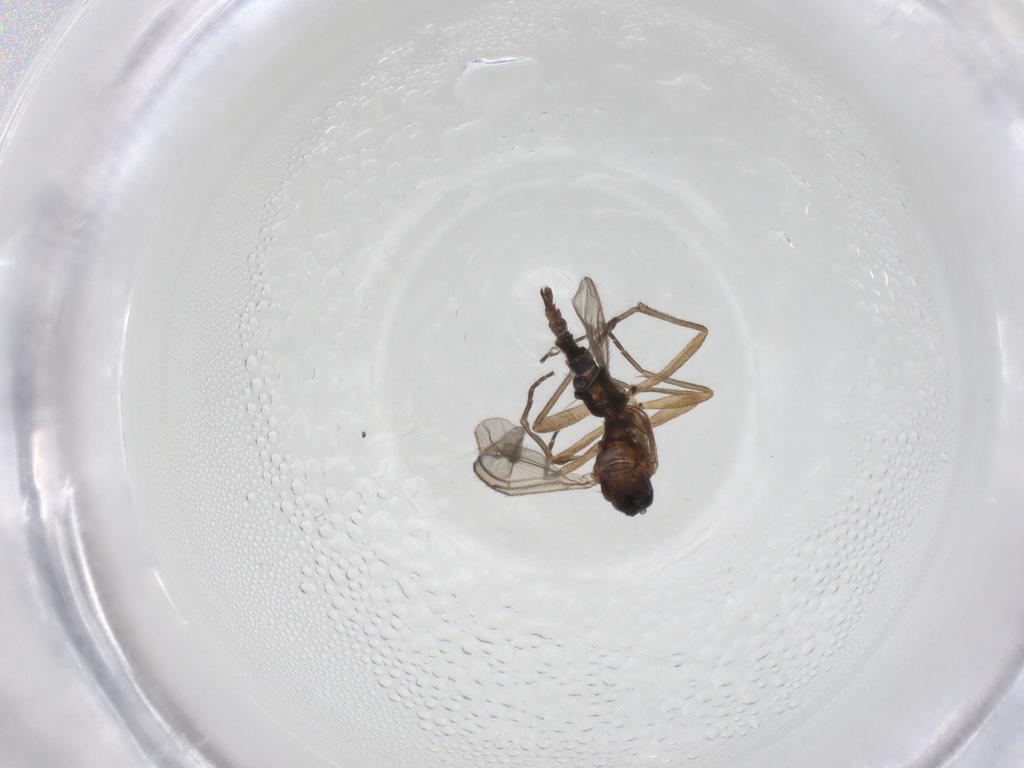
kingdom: Animalia
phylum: Arthropoda
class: Insecta
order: Diptera
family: Sciaridae
